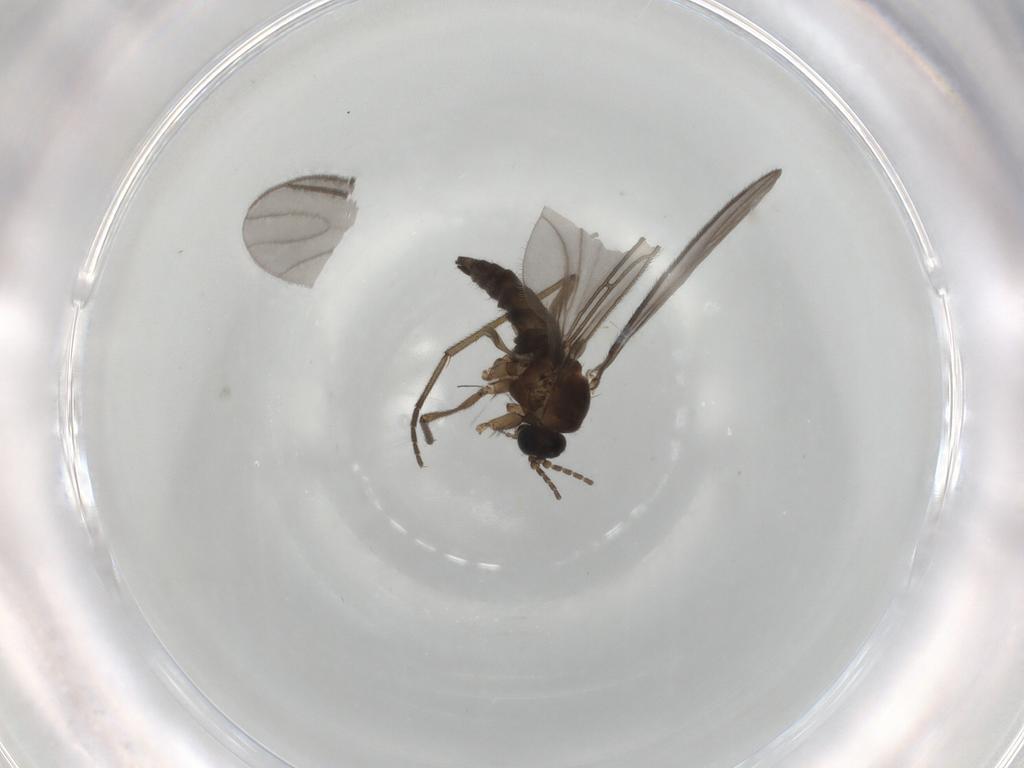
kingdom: Animalia
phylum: Arthropoda
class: Insecta
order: Diptera
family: Sciaridae
